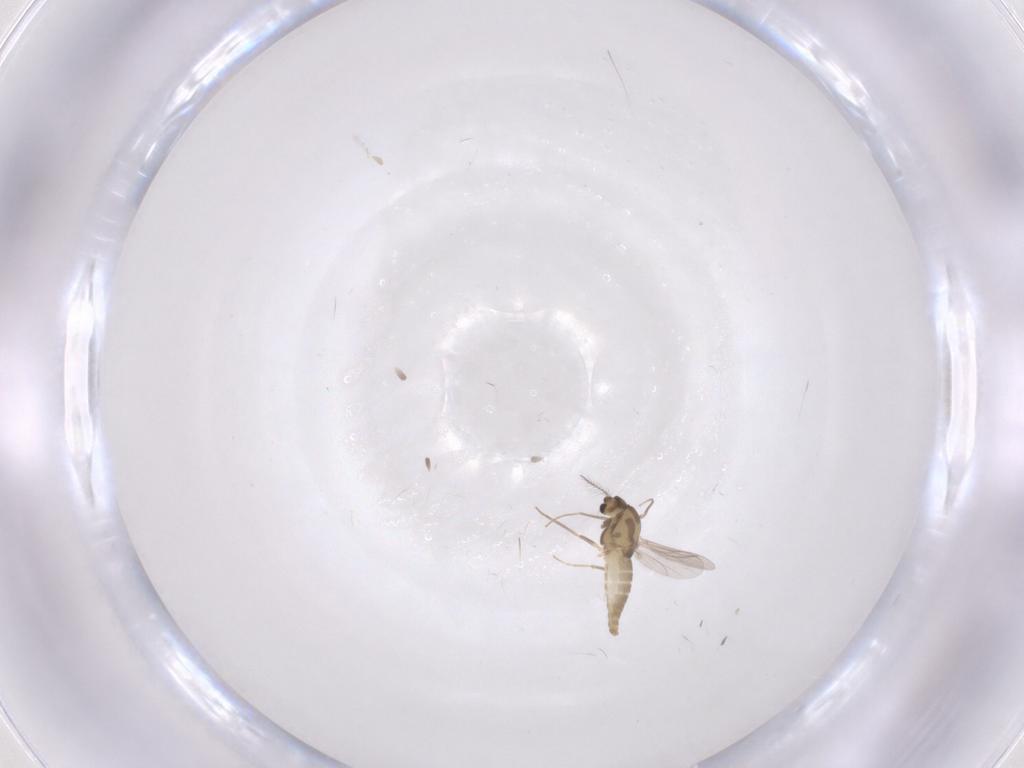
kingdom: Animalia
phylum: Arthropoda
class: Insecta
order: Diptera
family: Chironomidae
